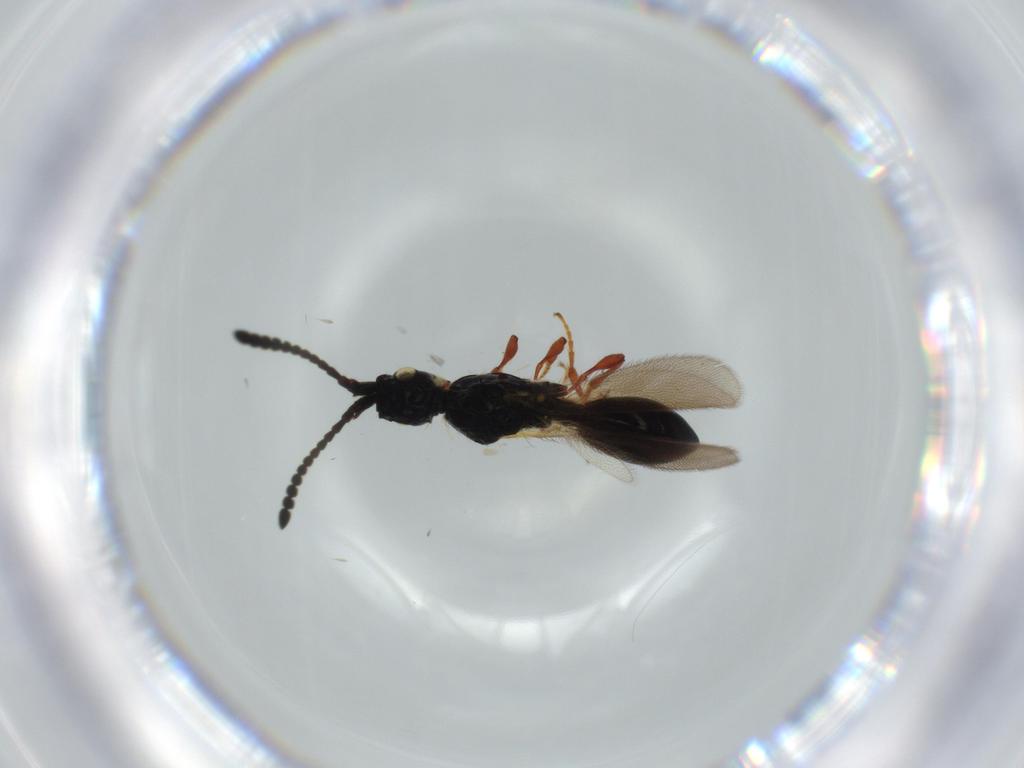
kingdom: Animalia
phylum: Arthropoda
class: Insecta
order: Hymenoptera
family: Diapriidae
